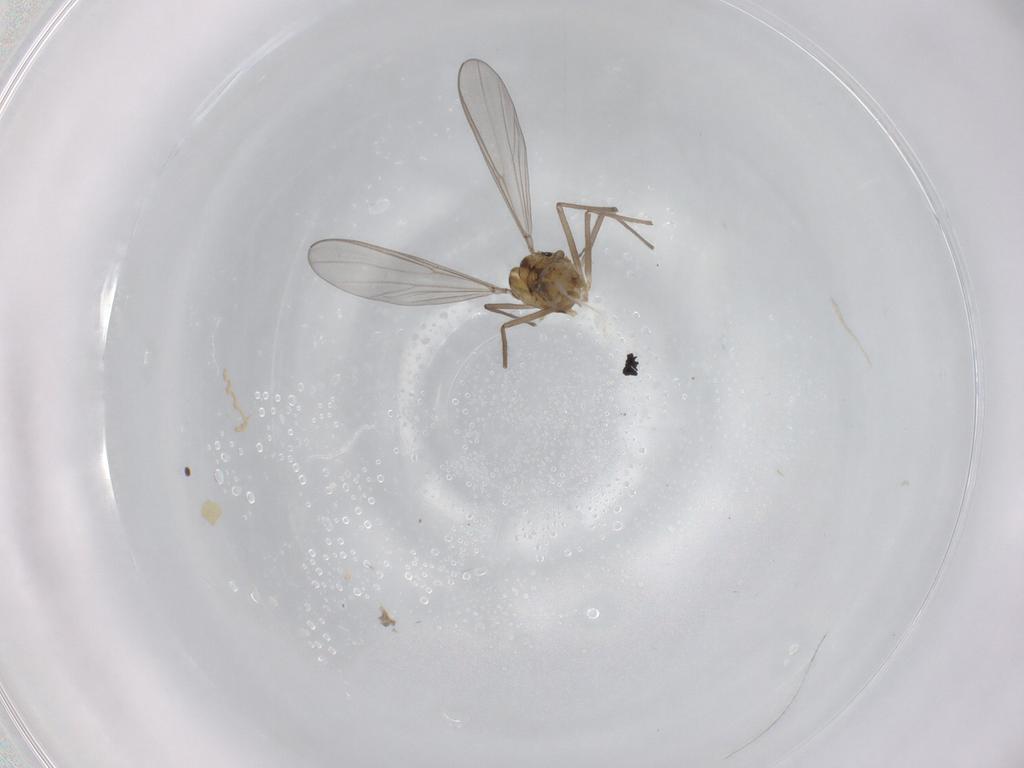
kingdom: Animalia
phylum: Arthropoda
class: Insecta
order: Diptera
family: Chironomidae
